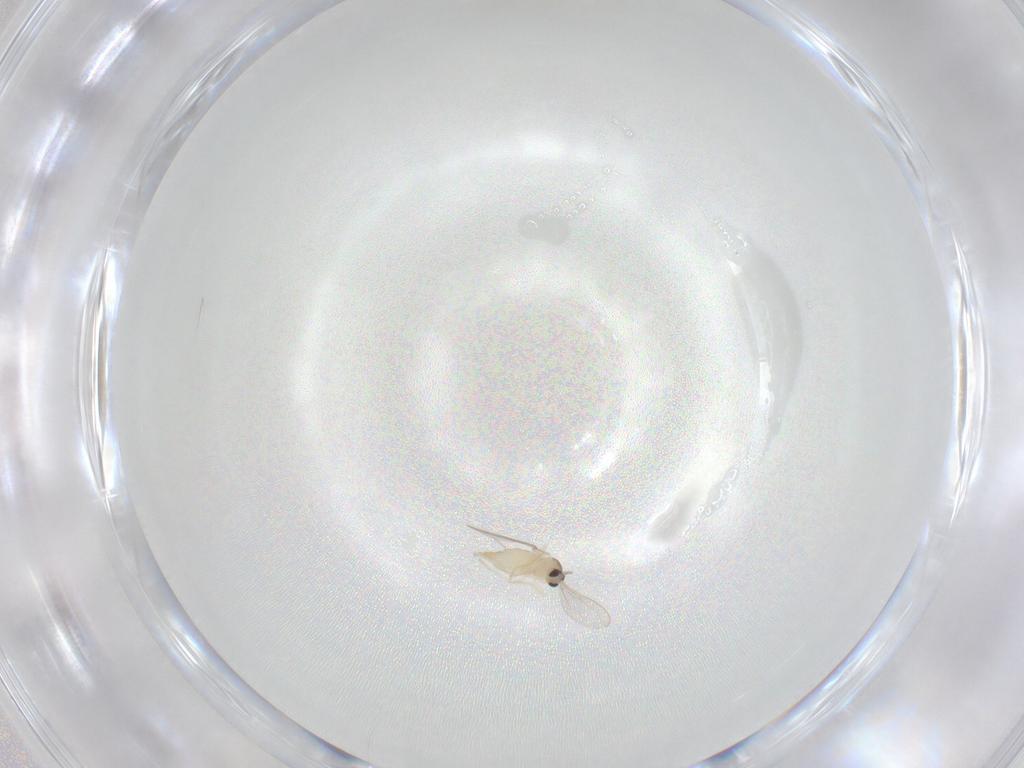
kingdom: Animalia
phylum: Arthropoda
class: Insecta
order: Diptera
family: Cecidomyiidae
